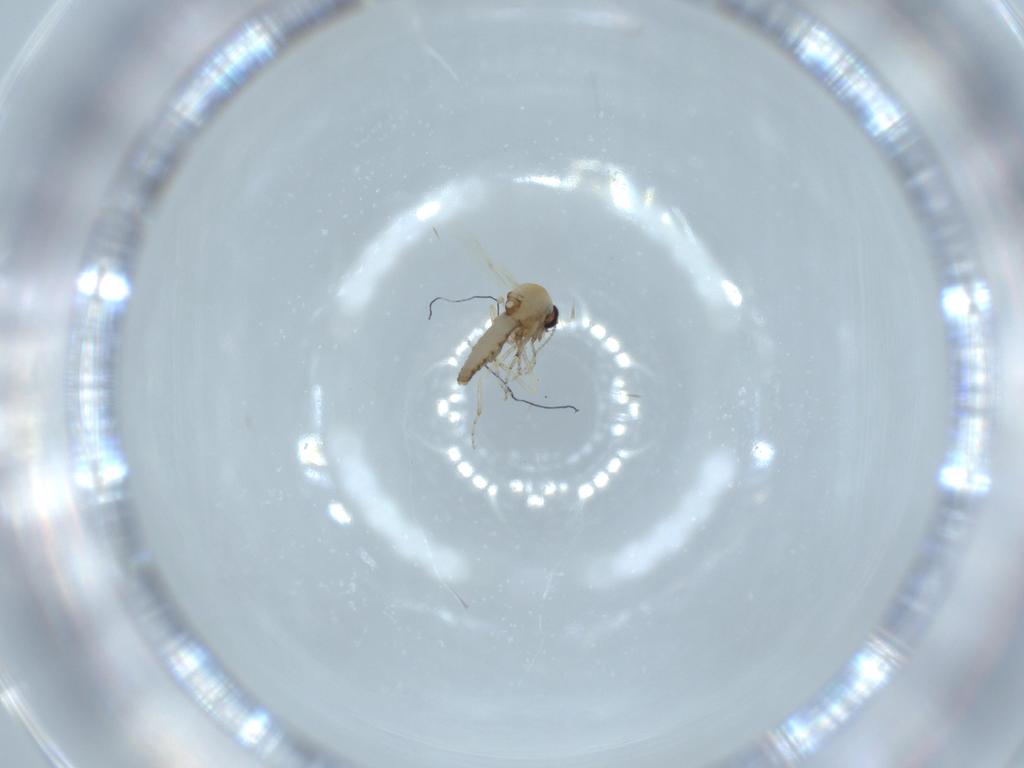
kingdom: Animalia
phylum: Arthropoda
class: Insecta
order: Diptera
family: Ceratopogonidae
